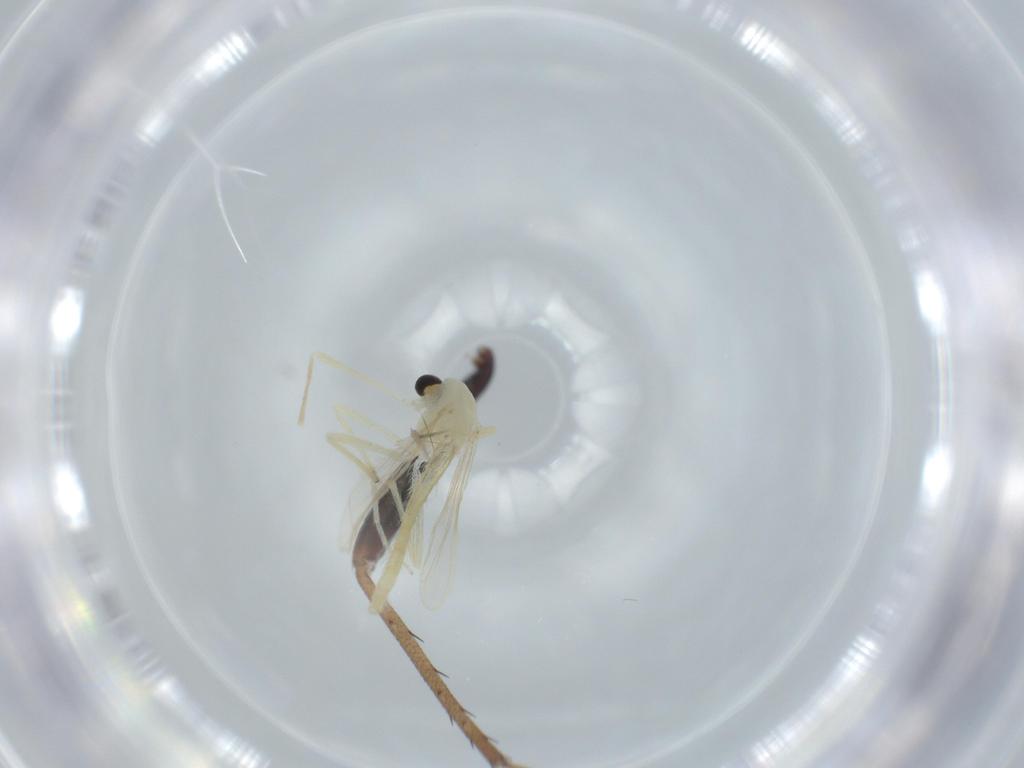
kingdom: Animalia
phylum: Arthropoda
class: Insecta
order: Diptera
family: Chironomidae
